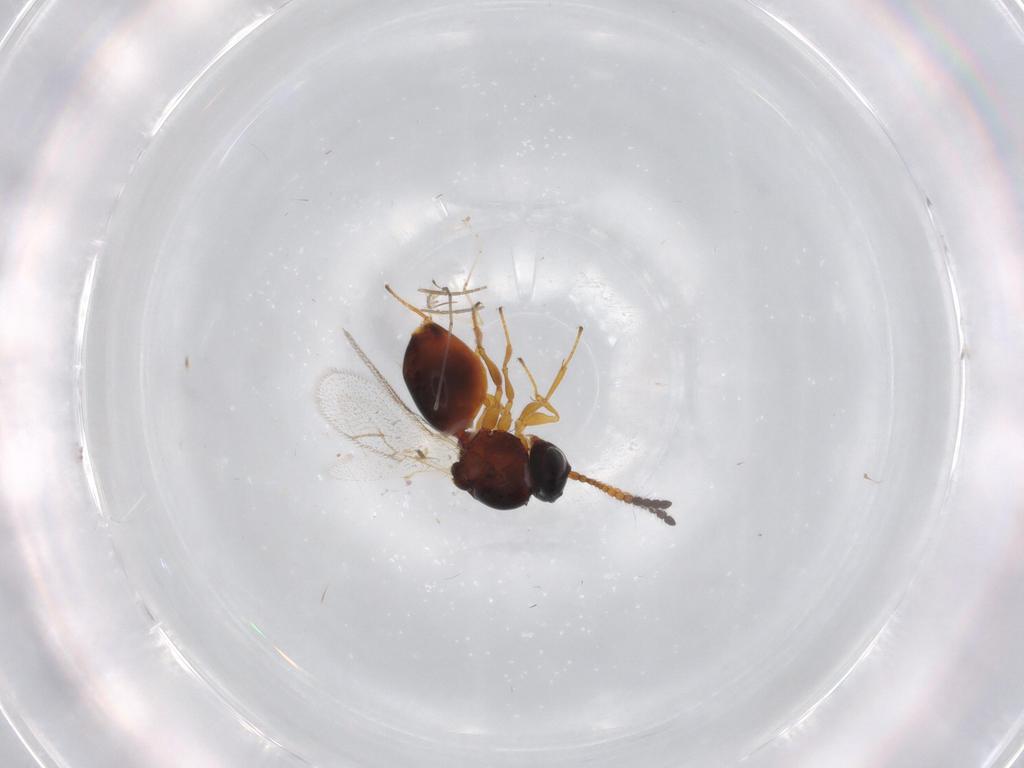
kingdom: Animalia
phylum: Arthropoda
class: Insecta
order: Hymenoptera
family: Figitidae
